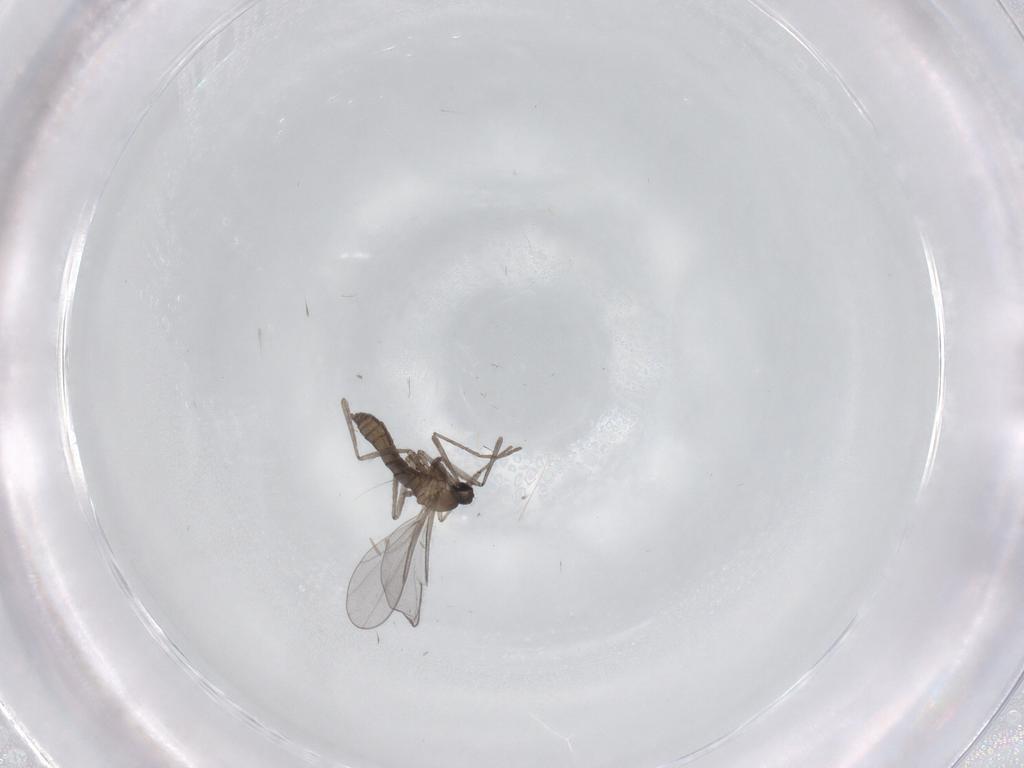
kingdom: Animalia
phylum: Arthropoda
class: Insecta
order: Diptera
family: Cecidomyiidae
